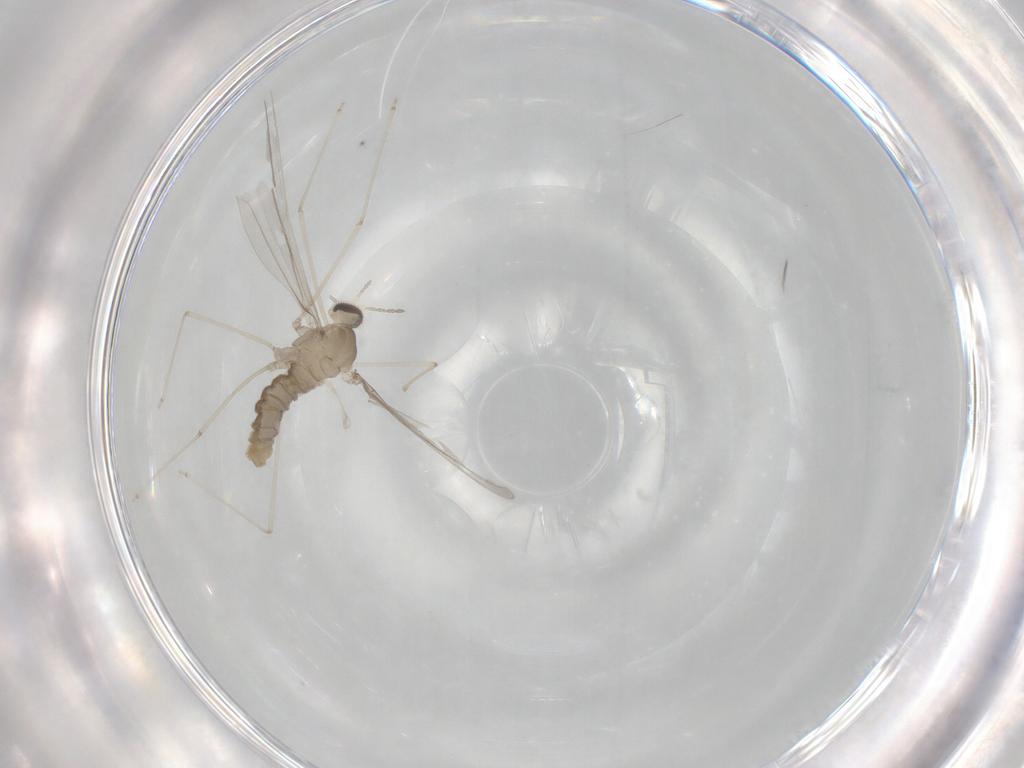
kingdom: Animalia
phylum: Arthropoda
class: Insecta
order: Diptera
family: Cecidomyiidae
